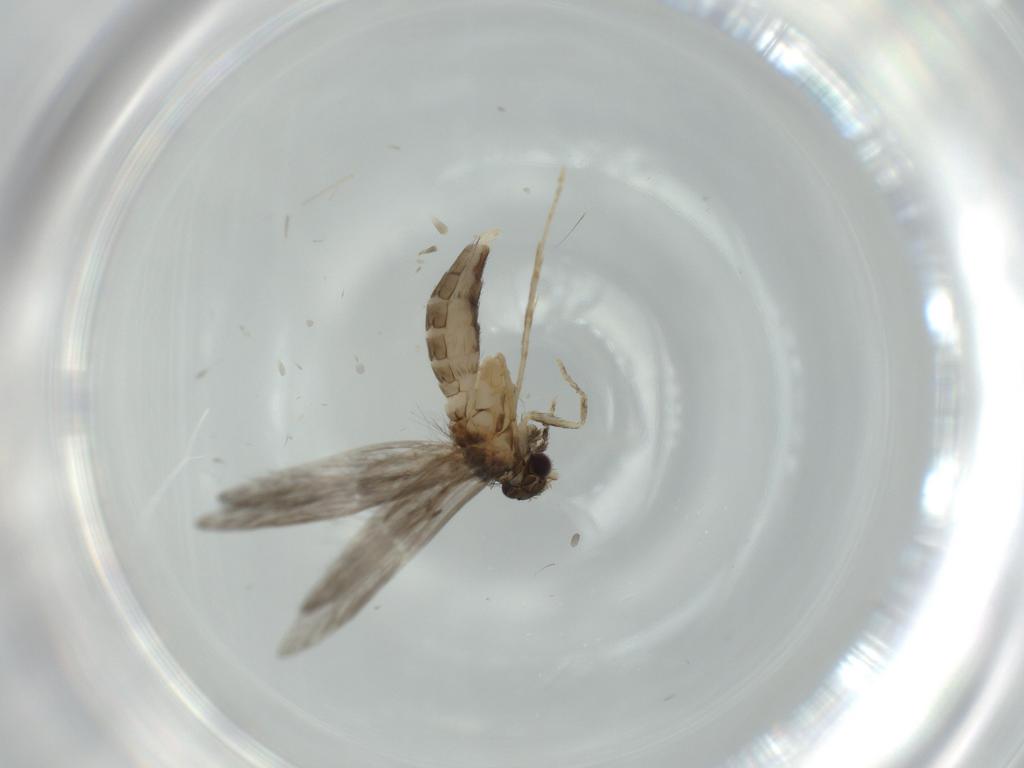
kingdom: Animalia
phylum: Arthropoda
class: Insecta
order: Trichoptera
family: Hydroptilidae
